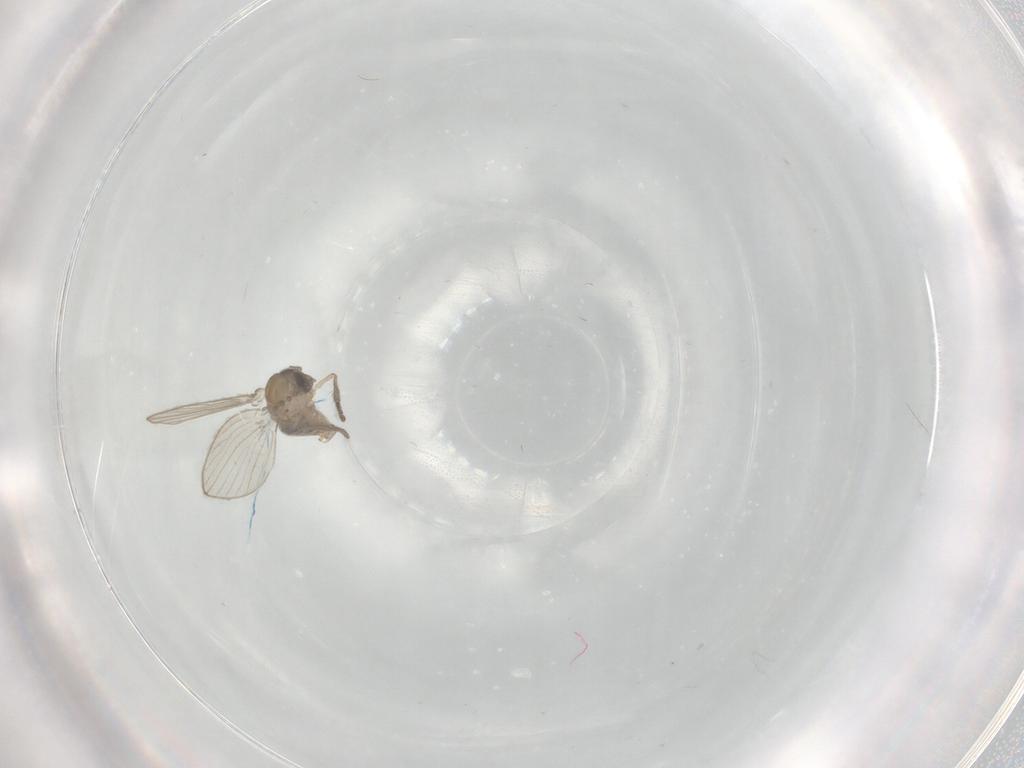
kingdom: Animalia
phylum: Arthropoda
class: Insecta
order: Diptera
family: Psychodidae
